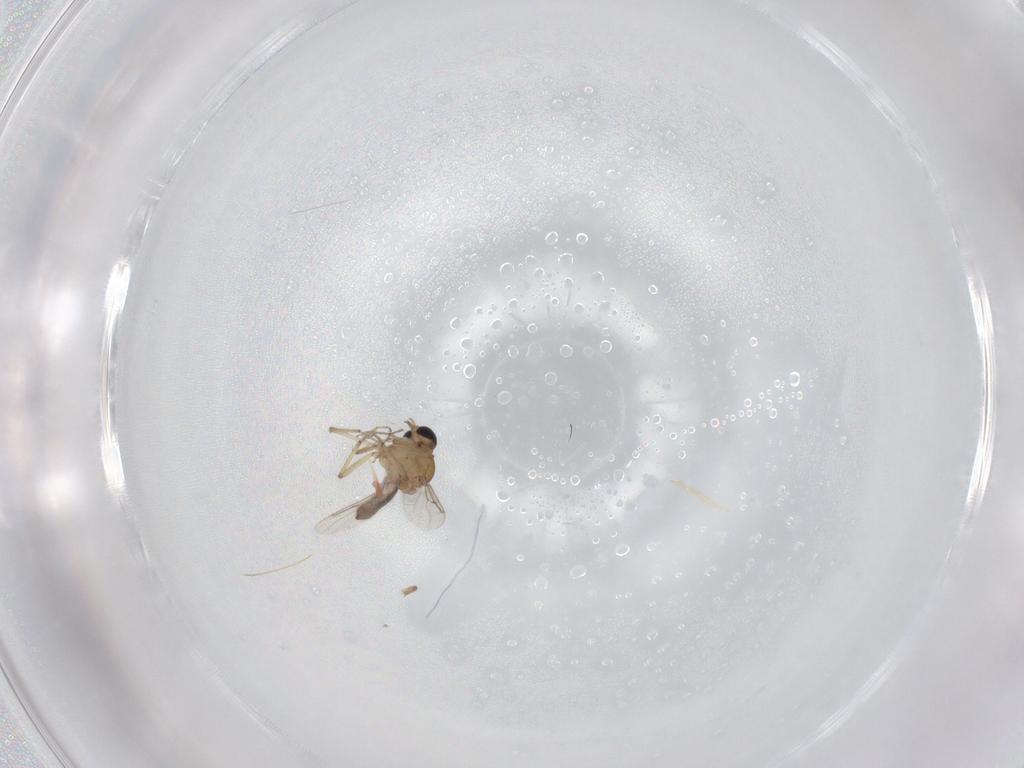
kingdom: Animalia
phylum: Arthropoda
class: Insecta
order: Diptera
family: Cecidomyiidae
